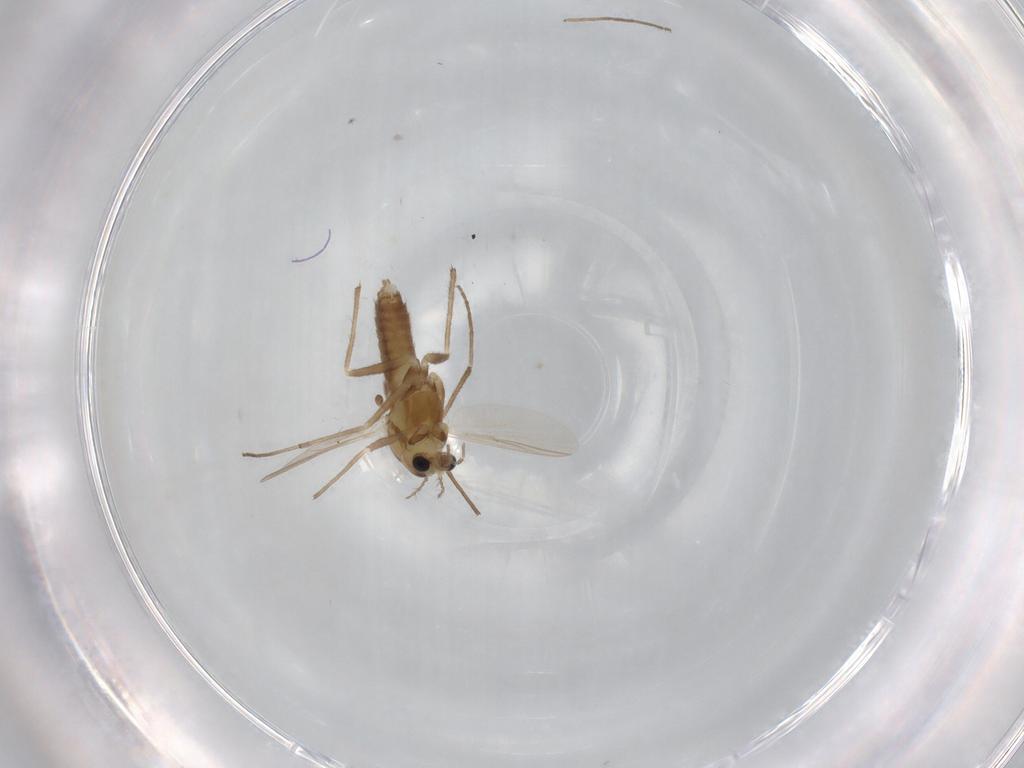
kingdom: Animalia
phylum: Arthropoda
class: Insecta
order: Diptera
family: Chironomidae
